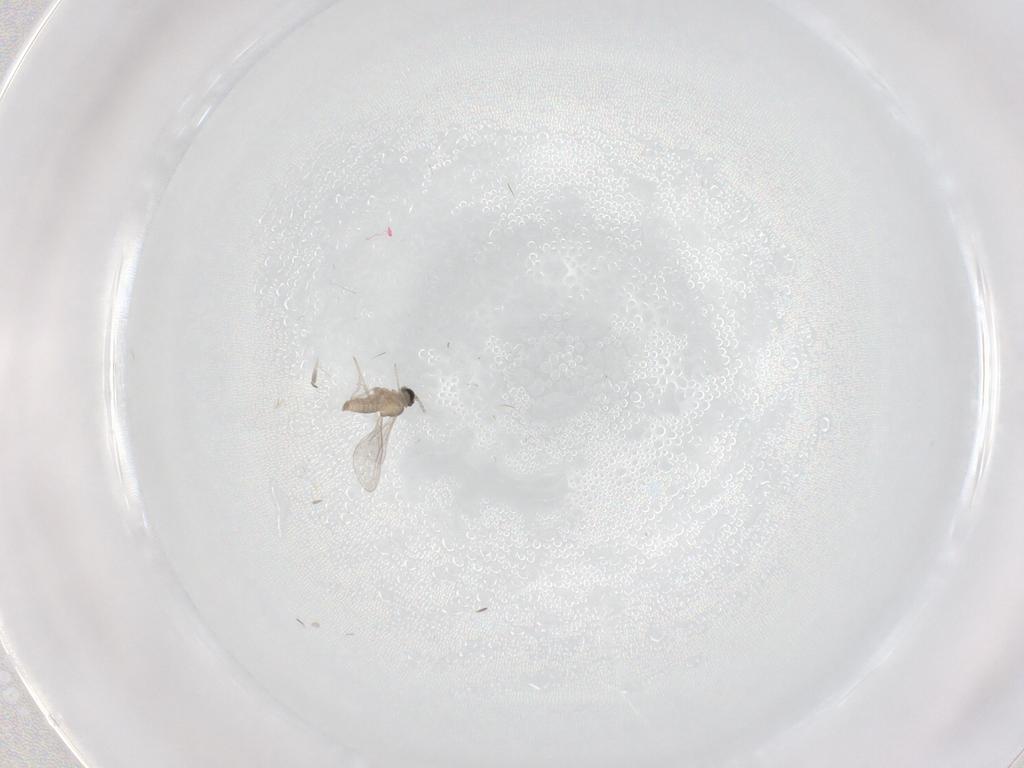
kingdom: Animalia
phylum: Arthropoda
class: Insecta
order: Diptera
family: Cecidomyiidae
